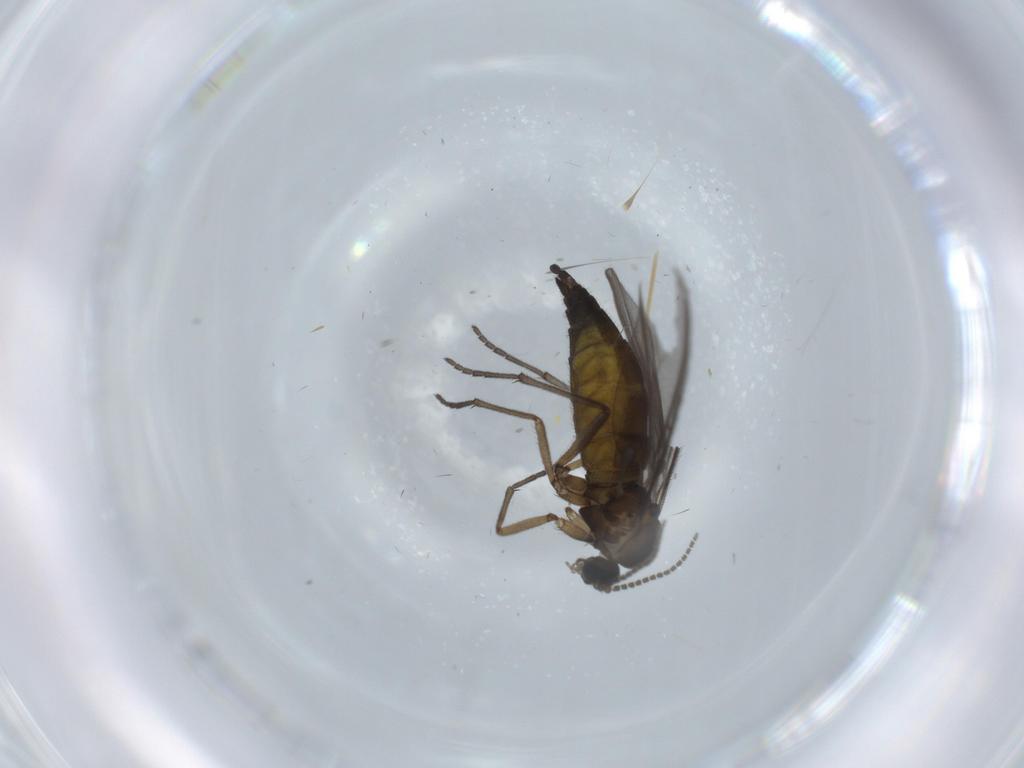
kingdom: Animalia
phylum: Arthropoda
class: Insecta
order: Diptera
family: Sciaridae
